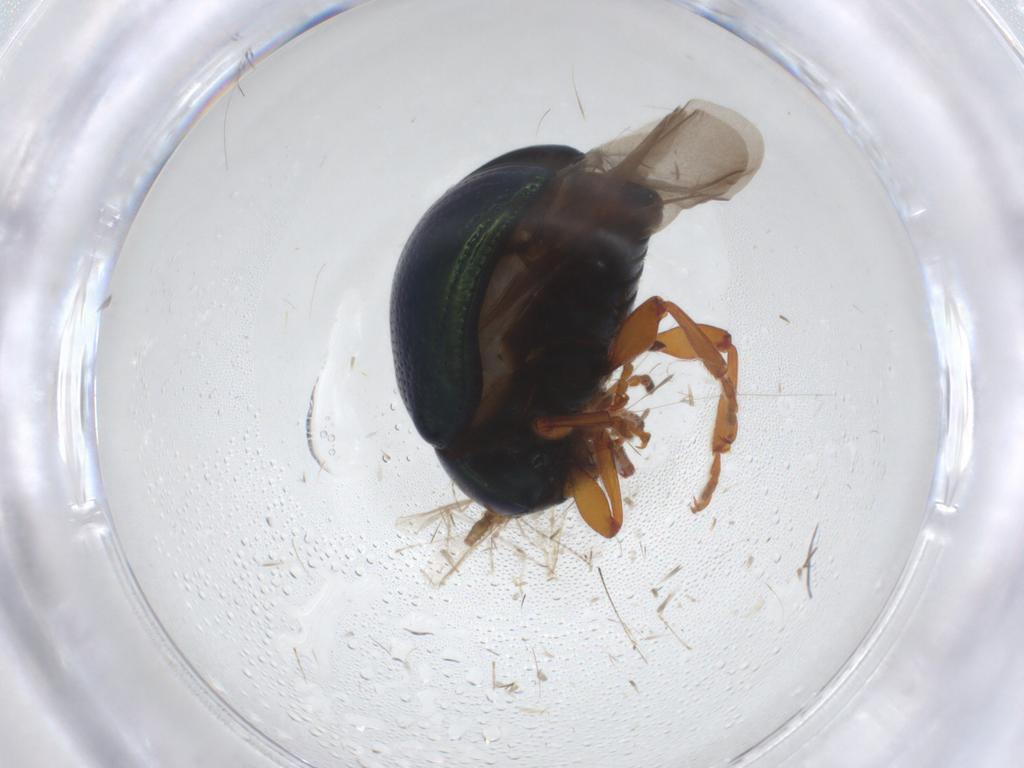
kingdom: Animalia
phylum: Arthropoda
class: Insecta
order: Coleoptera
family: Chrysomelidae
